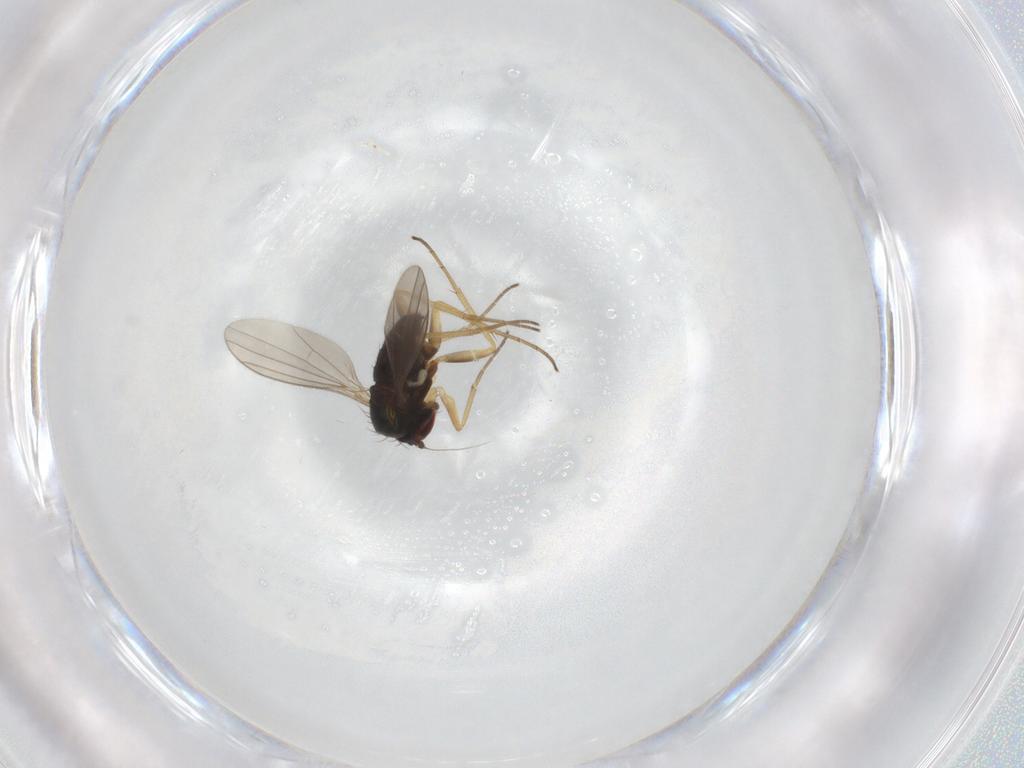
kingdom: Animalia
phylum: Arthropoda
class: Insecta
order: Diptera
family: Dolichopodidae
